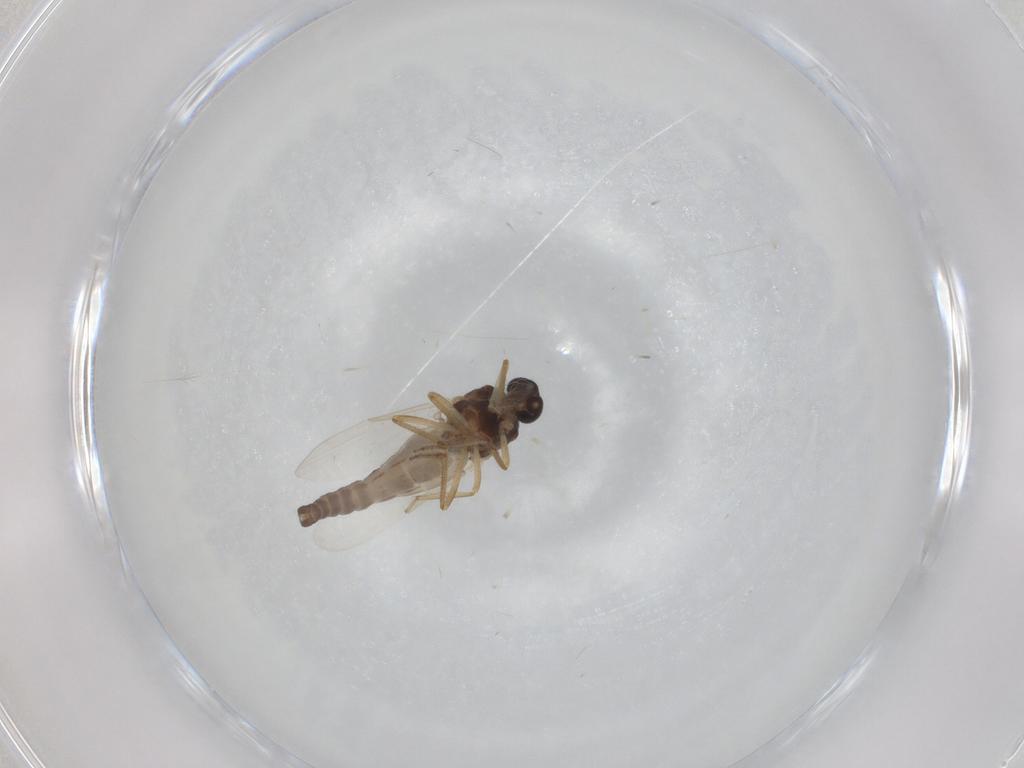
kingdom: Animalia
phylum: Arthropoda
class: Insecta
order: Diptera
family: Ceratopogonidae
